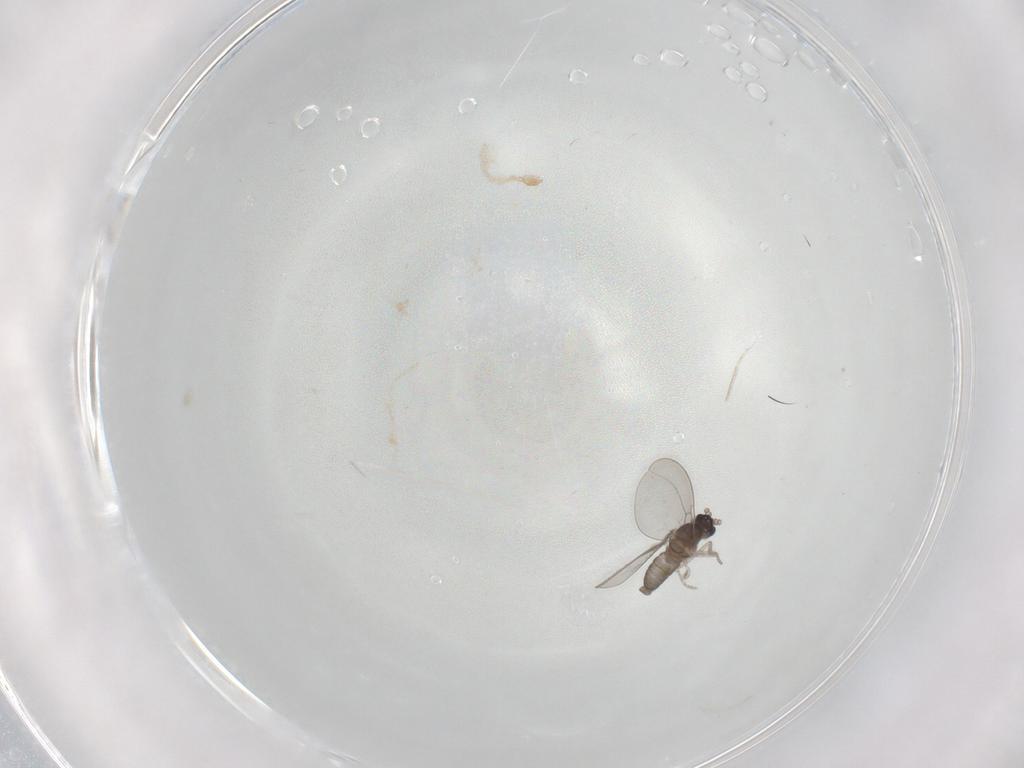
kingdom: Animalia
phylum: Arthropoda
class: Insecta
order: Diptera
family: Cecidomyiidae
